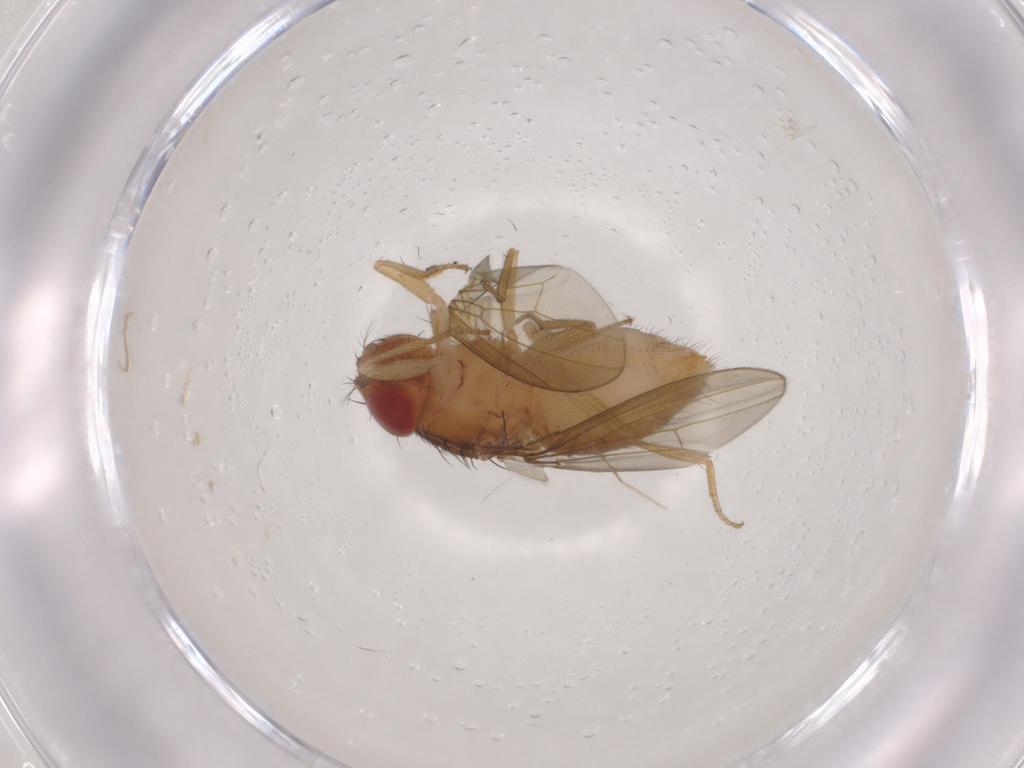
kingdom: Animalia
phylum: Arthropoda
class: Insecta
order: Diptera
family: Drosophilidae
